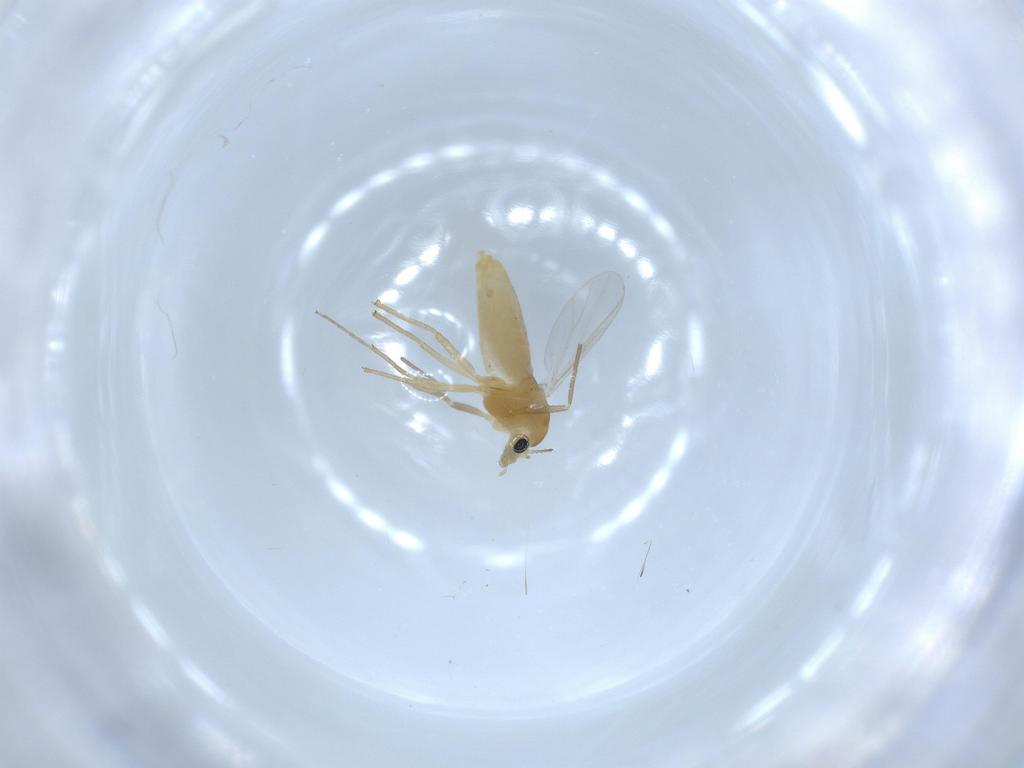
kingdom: Animalia
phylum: Arthropoda
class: Insecta
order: Diptera
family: Chironomidae
